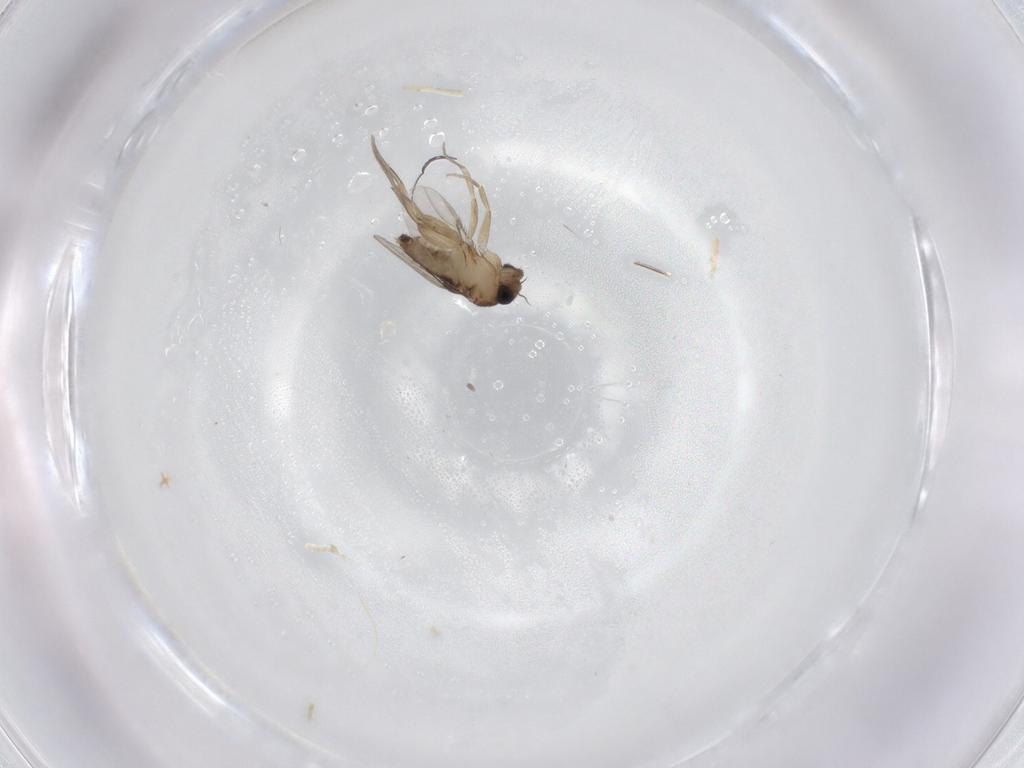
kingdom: Animalia
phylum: Arthropoda
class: Insecta
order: Diptera
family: Phoridae
